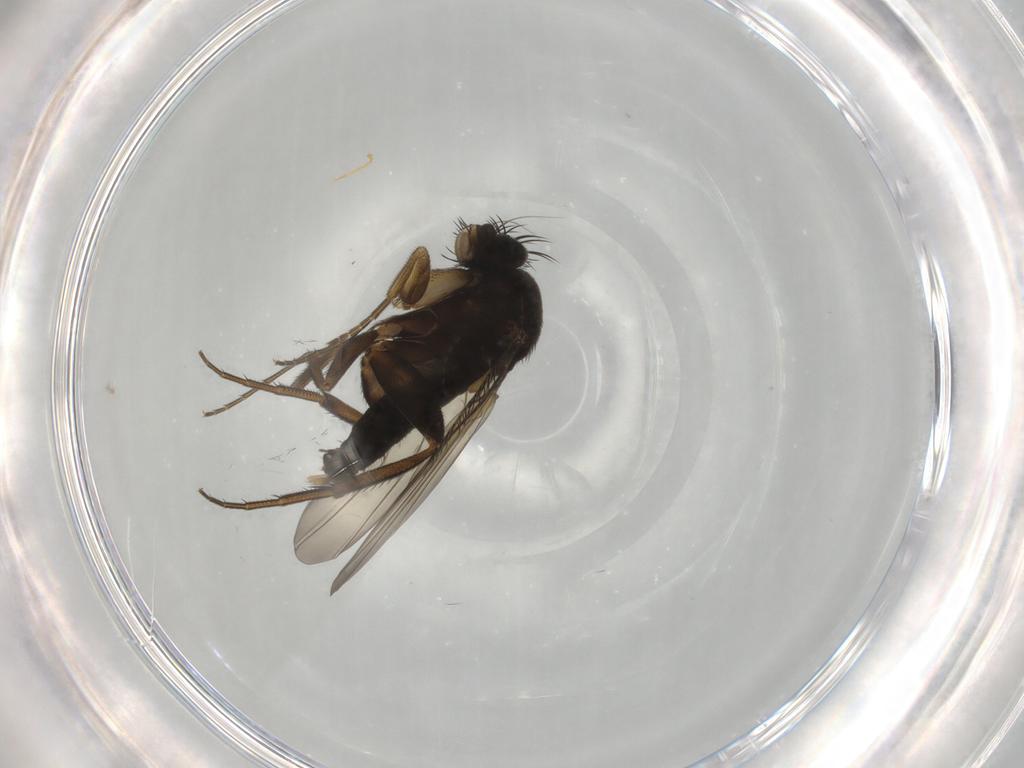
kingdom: Animalia
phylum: Arthropoda
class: Insecta
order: Diptera
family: Phoridae
